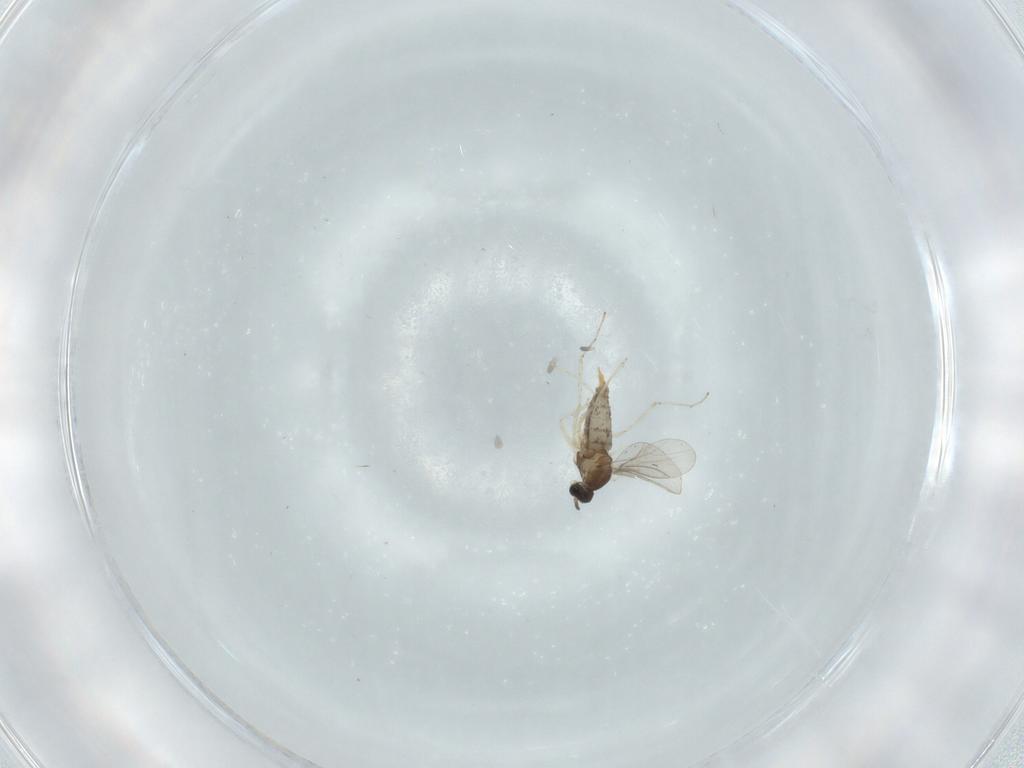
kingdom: Animalia
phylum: Arthropoda
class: Insecta
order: Diptera
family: Cecidomyiidae
